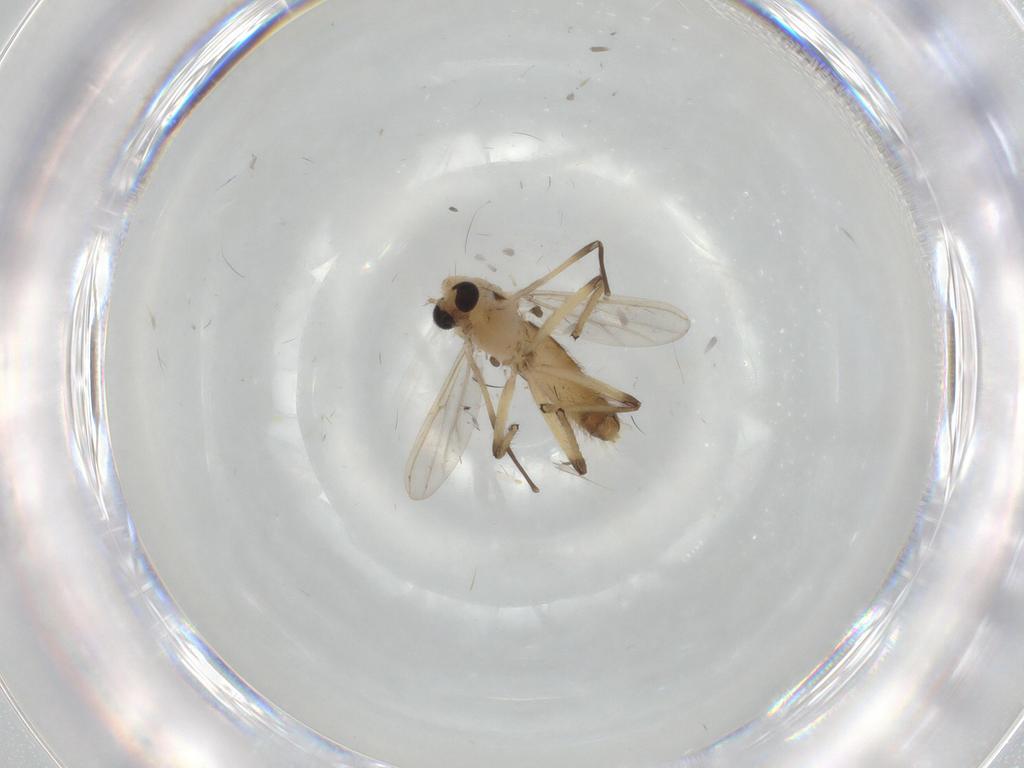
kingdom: Animalia
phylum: Arthropoda
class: Insecta
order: Diptera
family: Chironomidae
